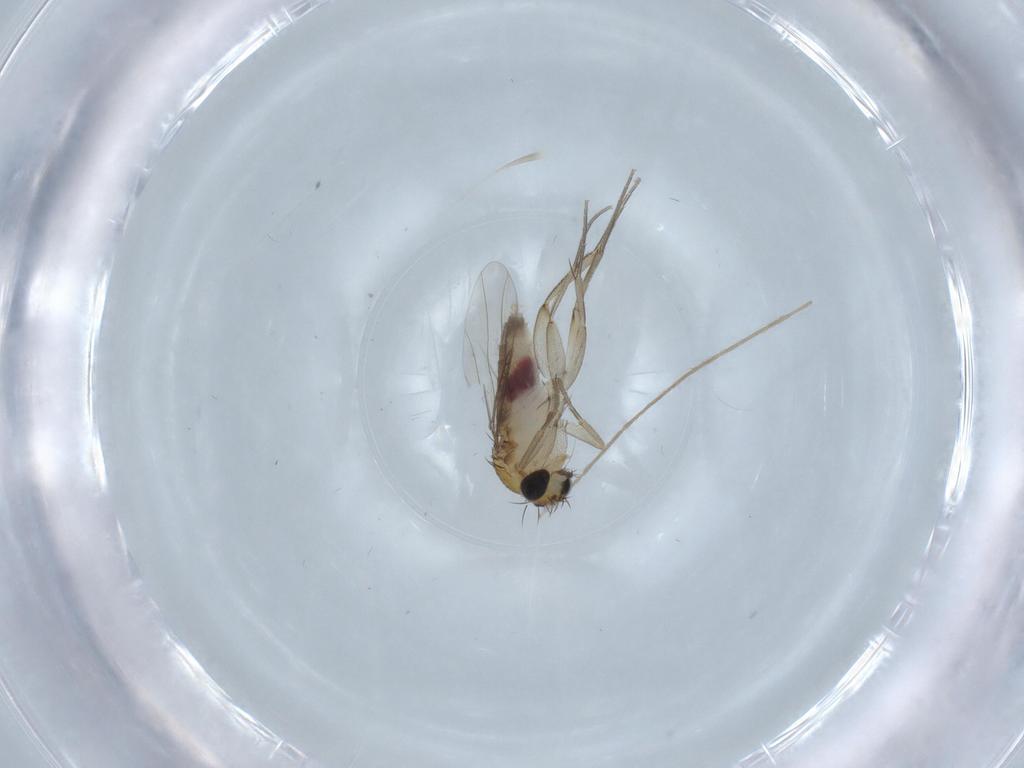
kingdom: Animalia
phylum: Arthropoda
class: Insecta
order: Diptera
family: Phoridae
